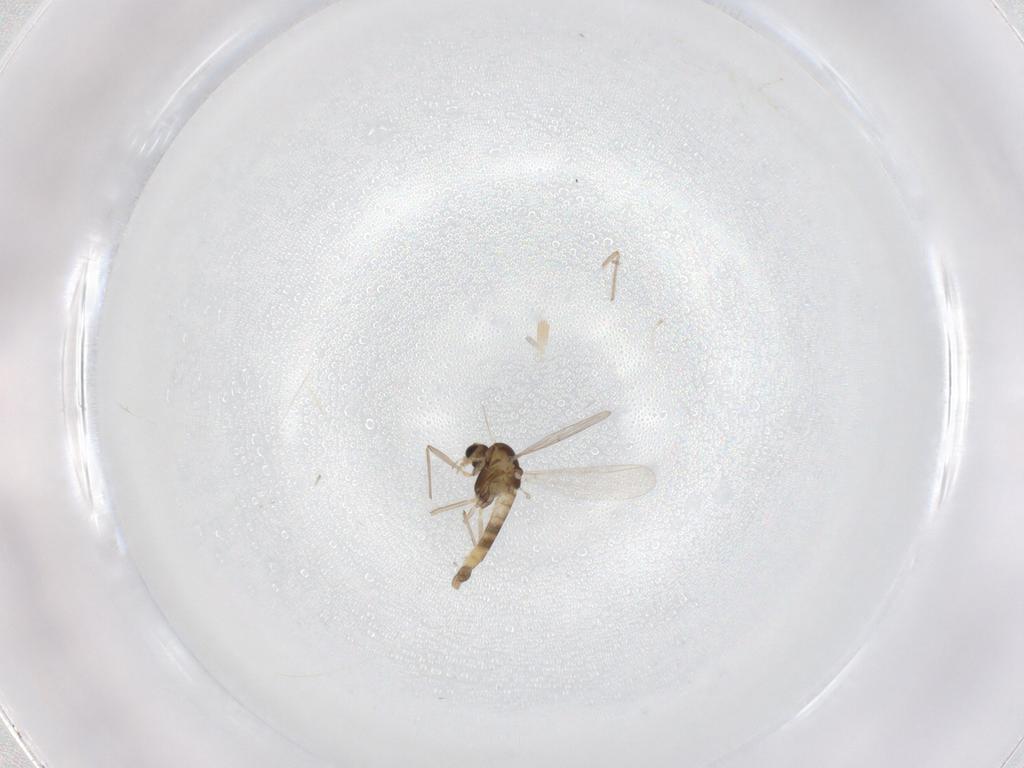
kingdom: Animalia
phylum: Arthropoda
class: Insecta
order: Diptera
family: Chironomidae
